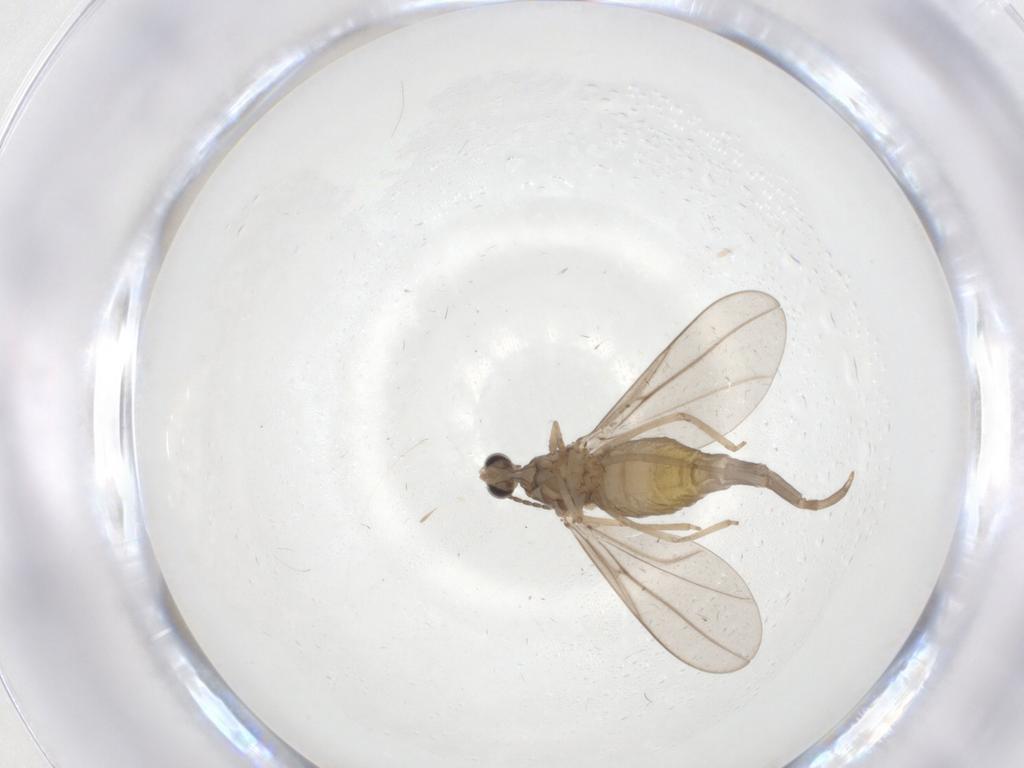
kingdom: Animalia
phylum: Arthropoda
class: Insecta
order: Diptera
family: Cecidomyiidae
